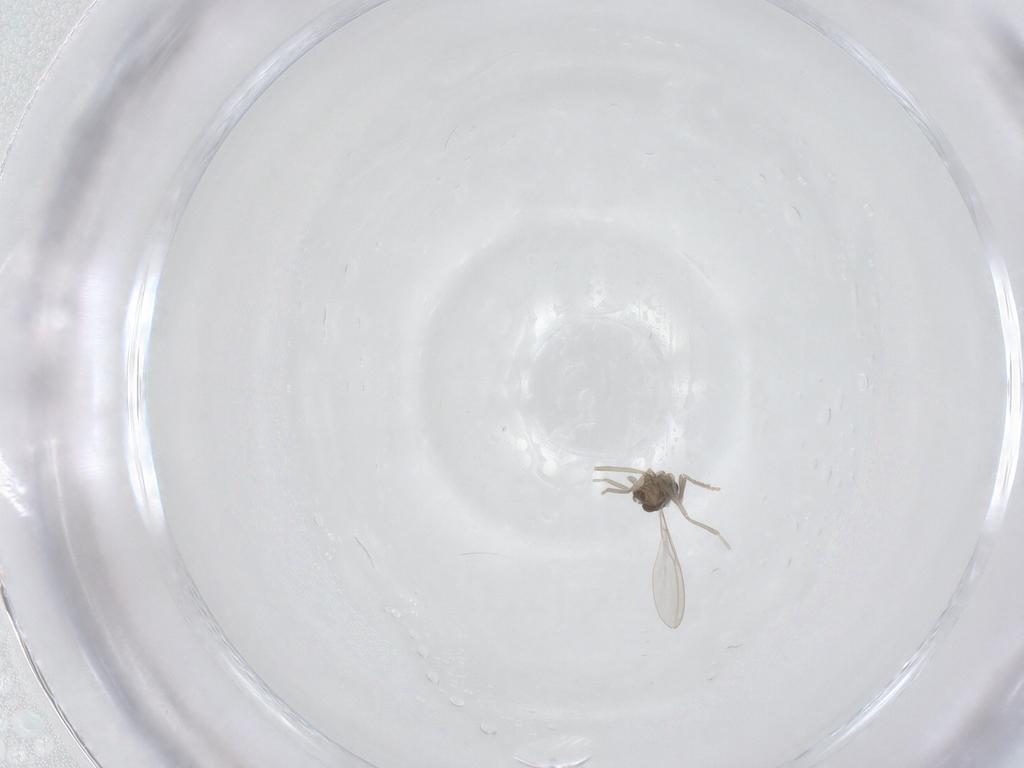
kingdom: Animalia
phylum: Arthropoda
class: Insecta
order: Diptera
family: Cecidomyiidae
